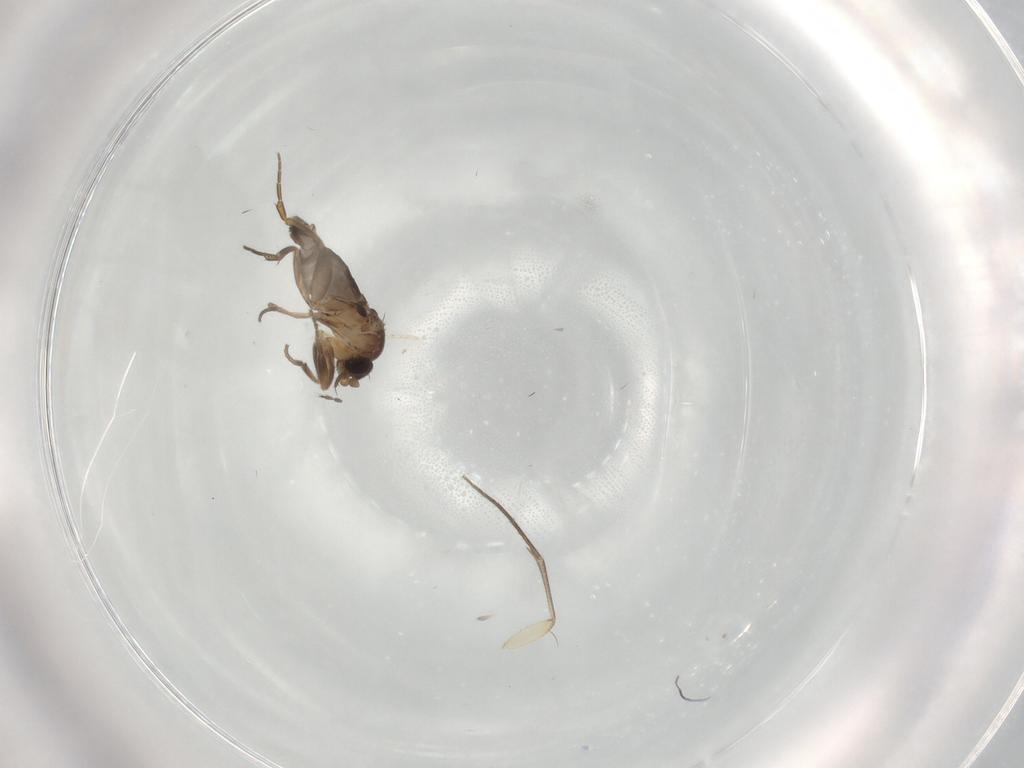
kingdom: Animalia
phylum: Arthropoda
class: Insecta
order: Diptera
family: Phoridae
